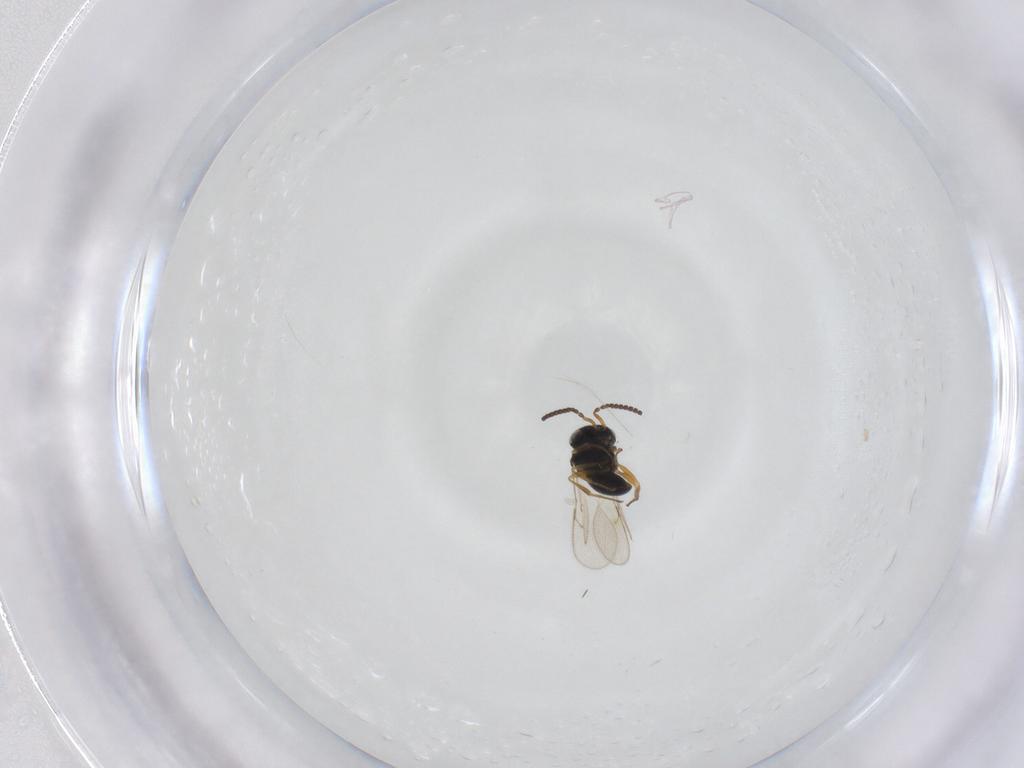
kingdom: Animalia
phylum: Arthropoda
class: Insecta
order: Hymenoptera
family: Scelionidae
